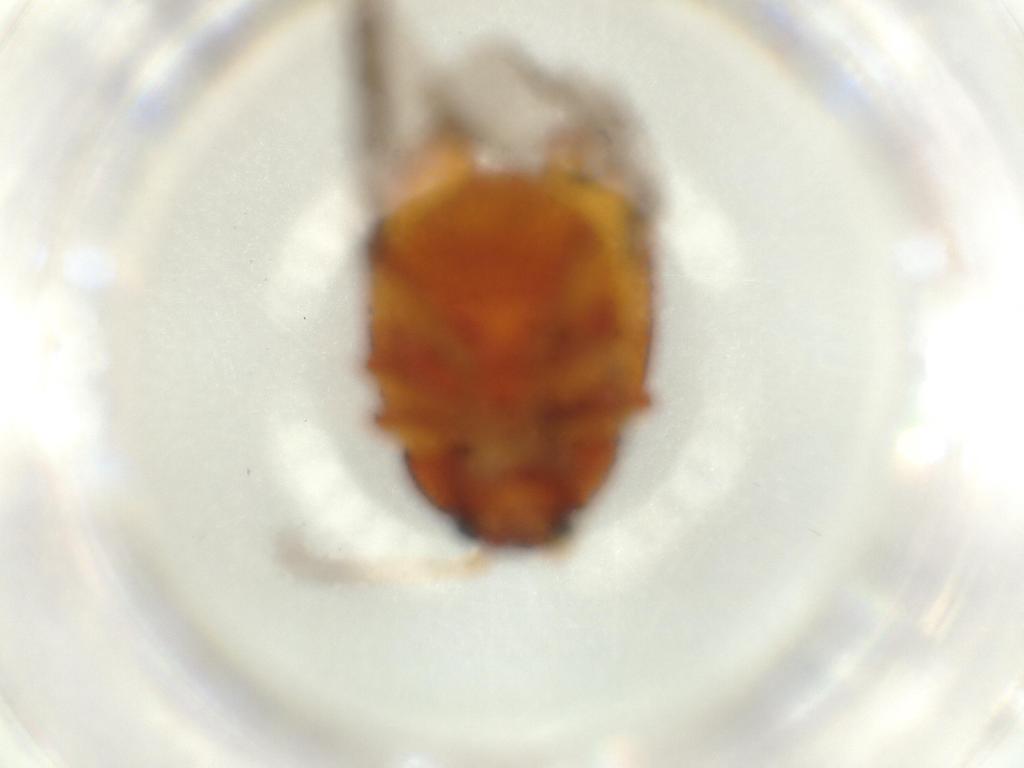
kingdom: Animalia
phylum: Arthropoda
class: Insecta
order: Coleoptera
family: Chrysomelidae
